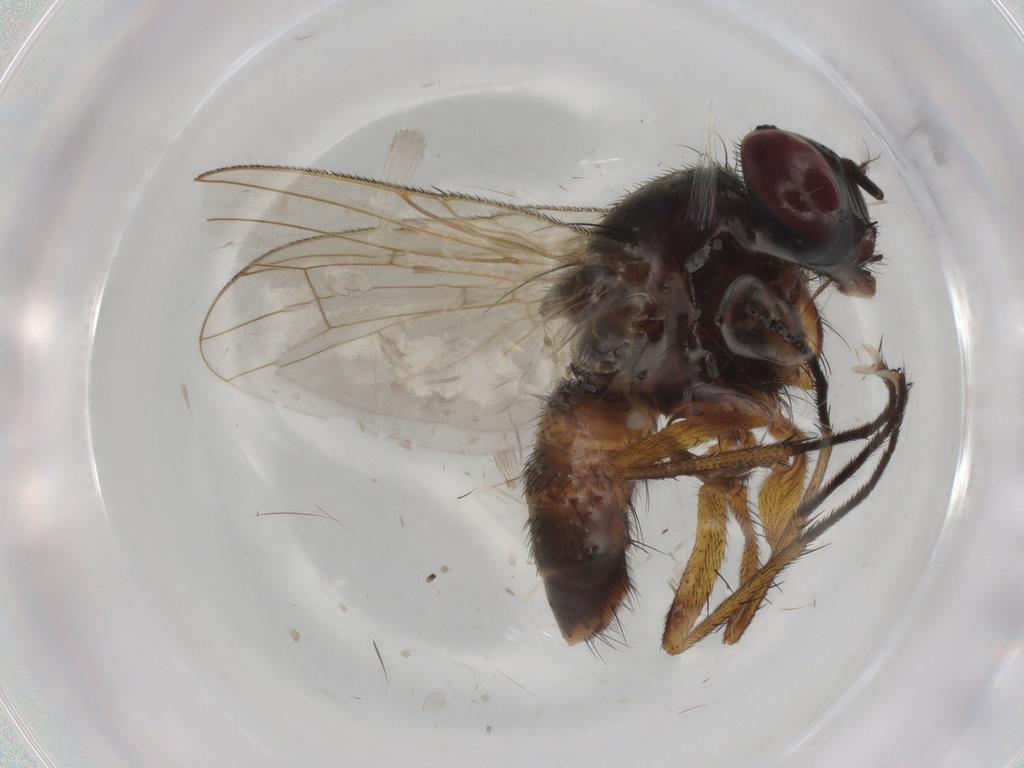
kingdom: Animalia
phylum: Arthropoda
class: Insecta
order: Diptera
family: Muscidae
